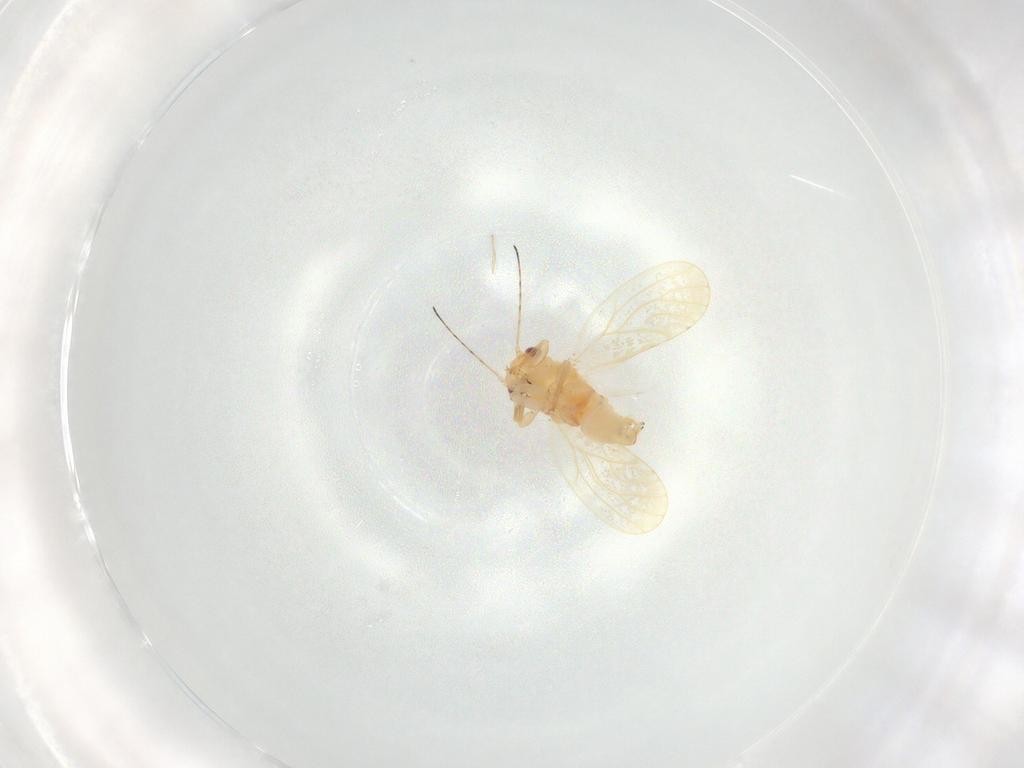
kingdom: Animalia
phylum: Arthropoda
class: Insecta
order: Hemiptera
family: Psylloidea_incertae_sedis
